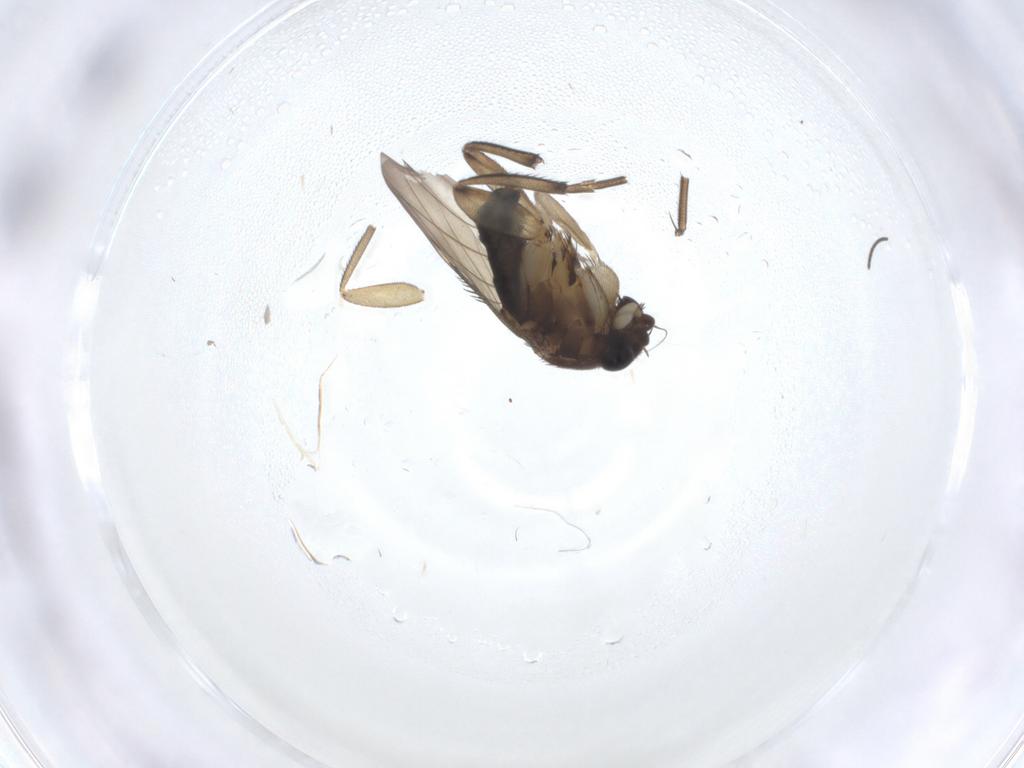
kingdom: Animalia
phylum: Arthropoda
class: Insecta
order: Diptera
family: Sciaridae
